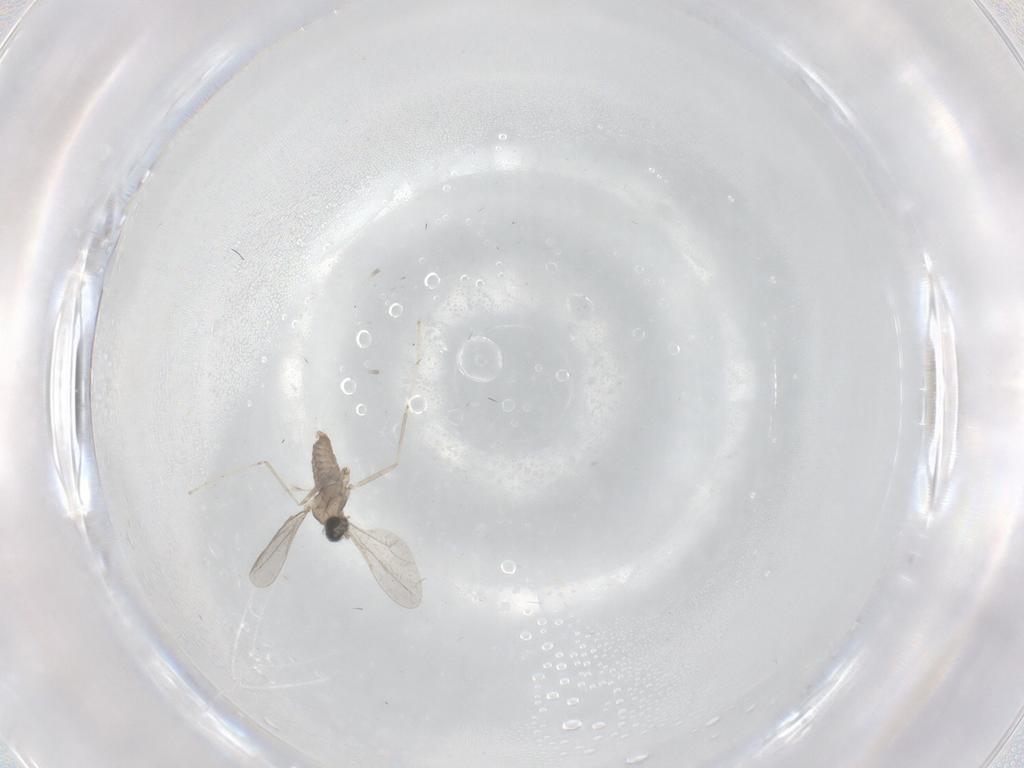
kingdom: Animalia
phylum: Arthropoda
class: Insecta
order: Diptera
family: Cecidomyiidae
